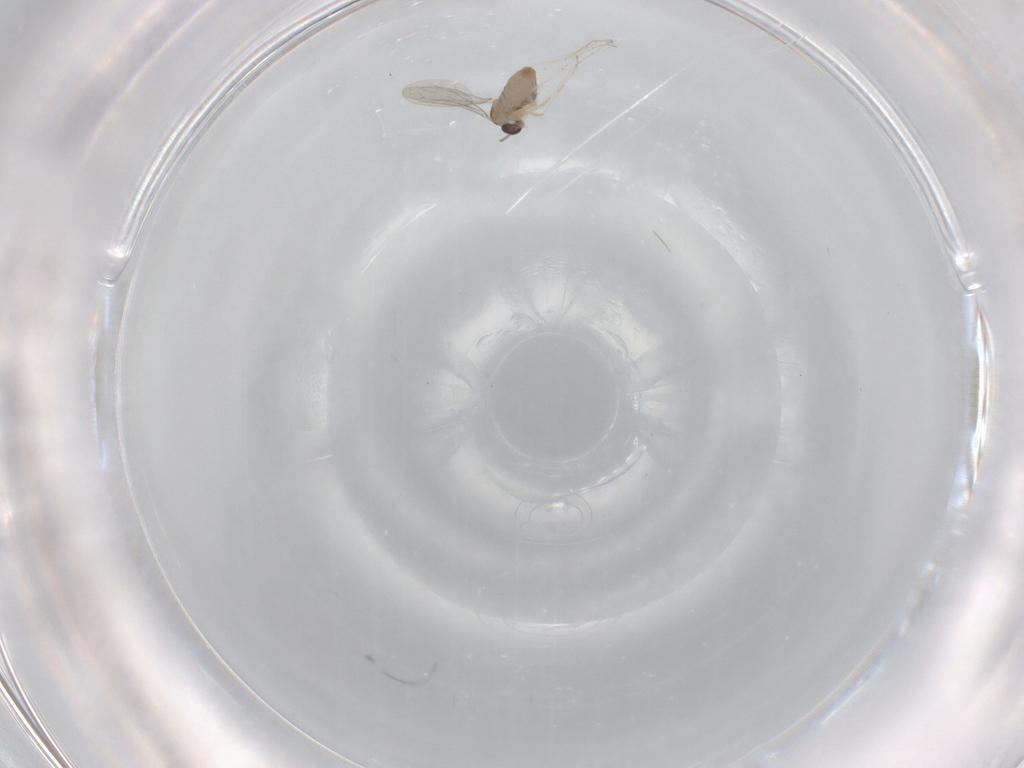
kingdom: Animalia
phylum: Arthropoda
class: Insecta
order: Diptera
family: Cecidomyiidae
